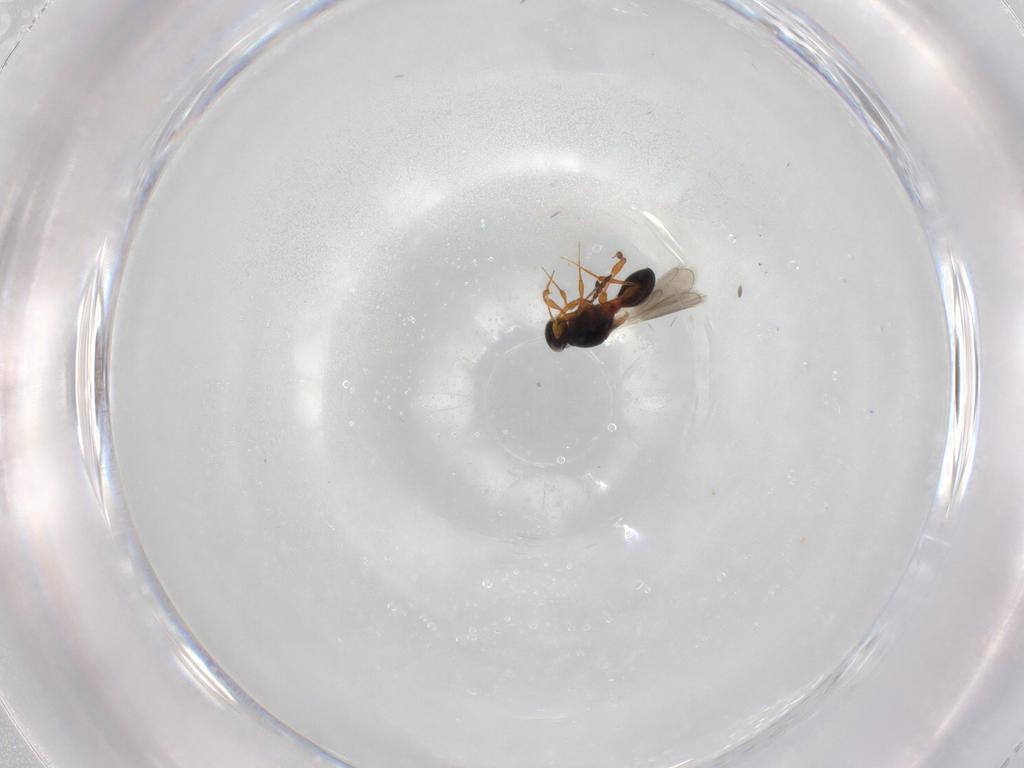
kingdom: Animalia
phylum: Arthropoda
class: Insecta
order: Hymenoptera
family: Platygastridae
